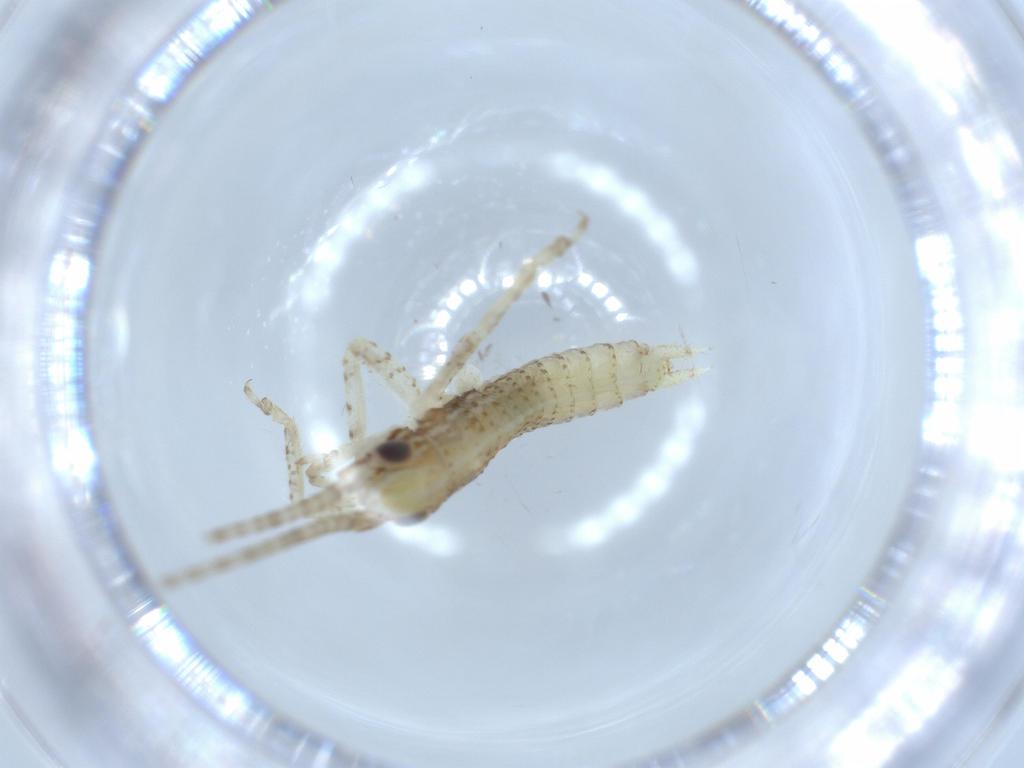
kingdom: Animalia
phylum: Arthropoda
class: Insecta
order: Orthoptera
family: Gryllidae
